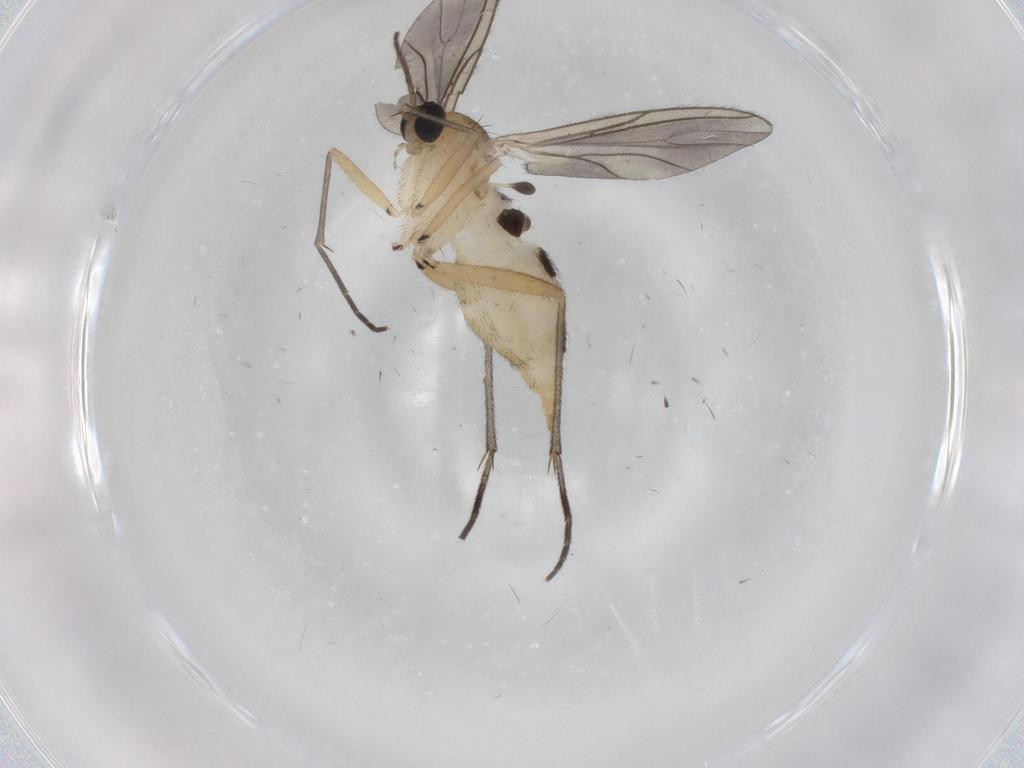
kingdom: Animalia
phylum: Arthropoda
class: Insecta
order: Diptera
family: Sciaridae
